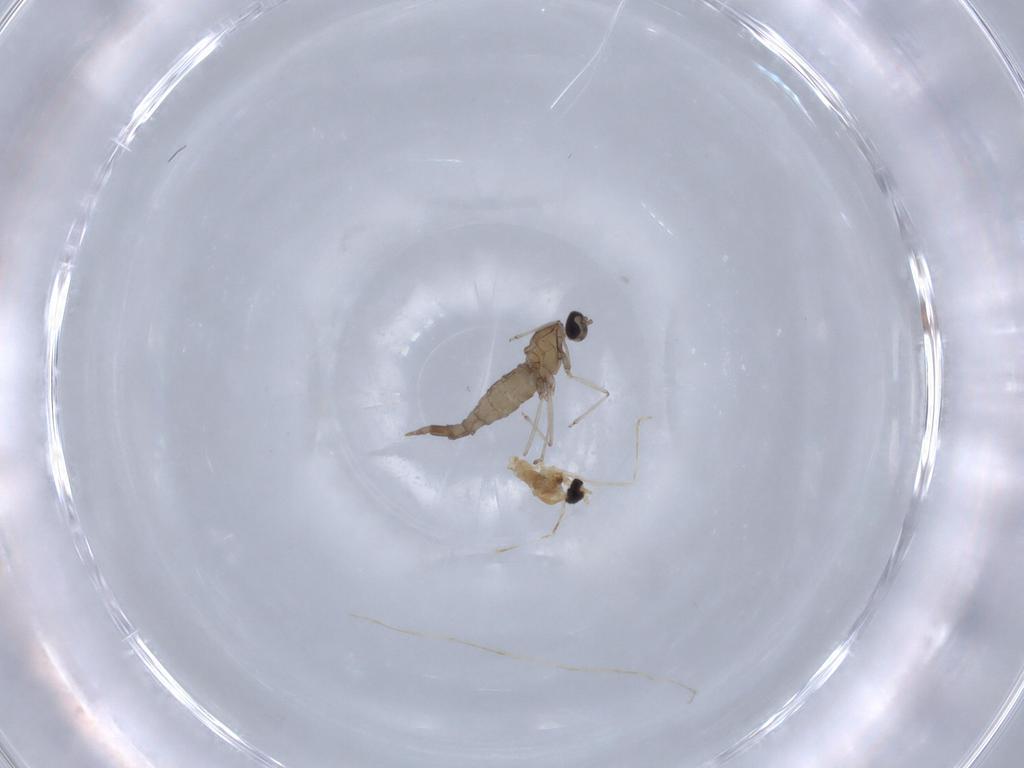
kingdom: Animalia
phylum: Arthropoda
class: Insecta
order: Diptera
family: Cecidomyiidae
